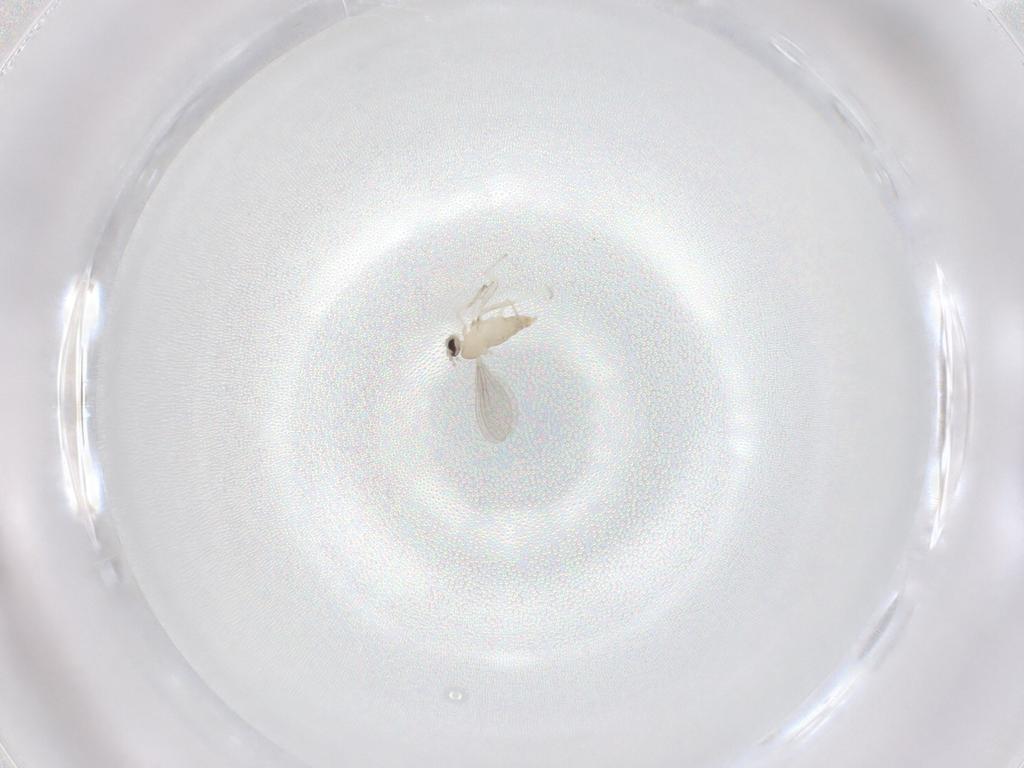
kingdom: Animalia
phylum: Arthropoda
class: Insecta
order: Diptera
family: Cecidomyiidae
